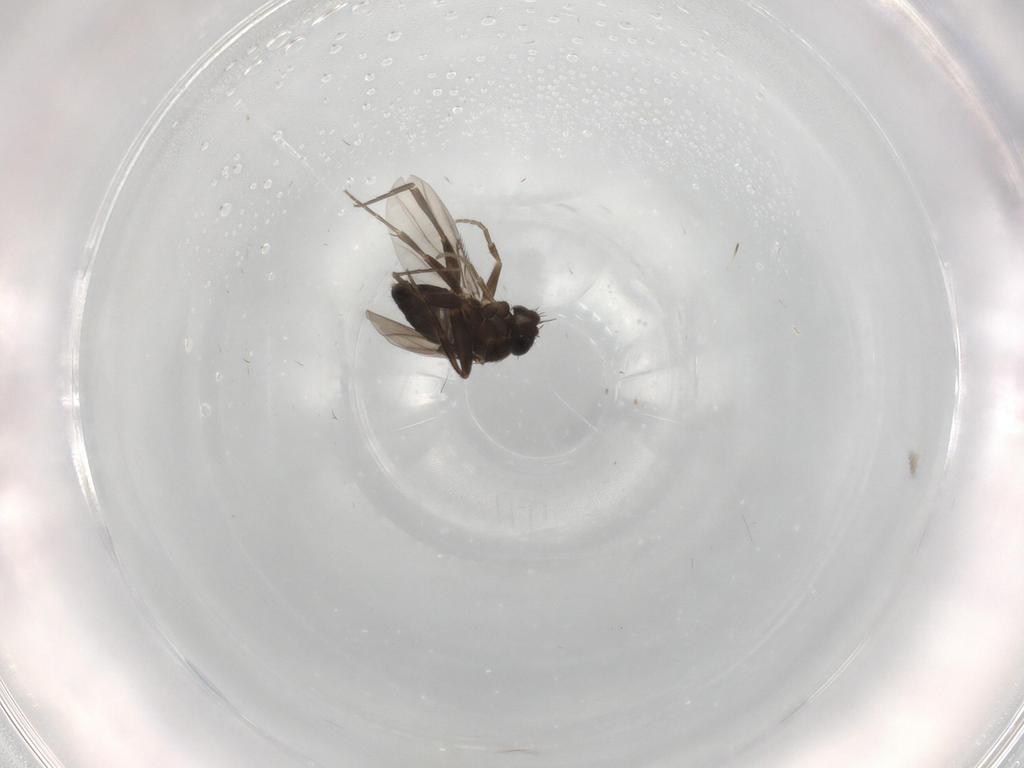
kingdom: Animalia
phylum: Arthropoda
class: Insecta
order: Diptera
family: Phoridae
